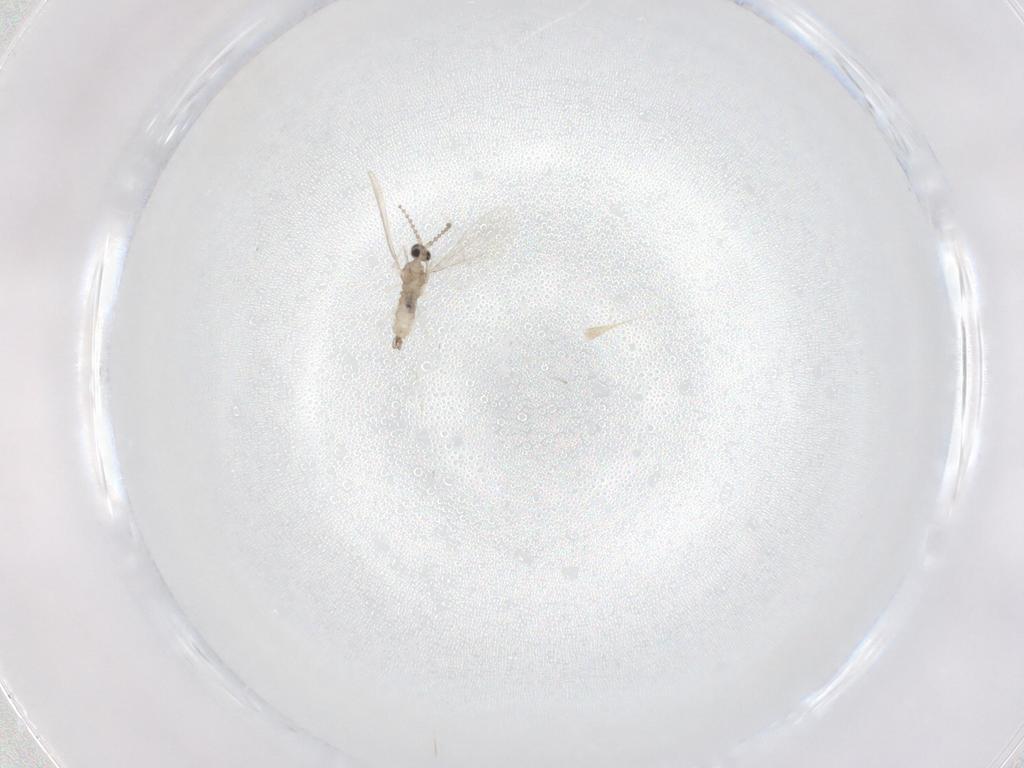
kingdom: Animalia
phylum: Arthropoda
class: Insecta
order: Diptera
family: Cecidomyiidae
